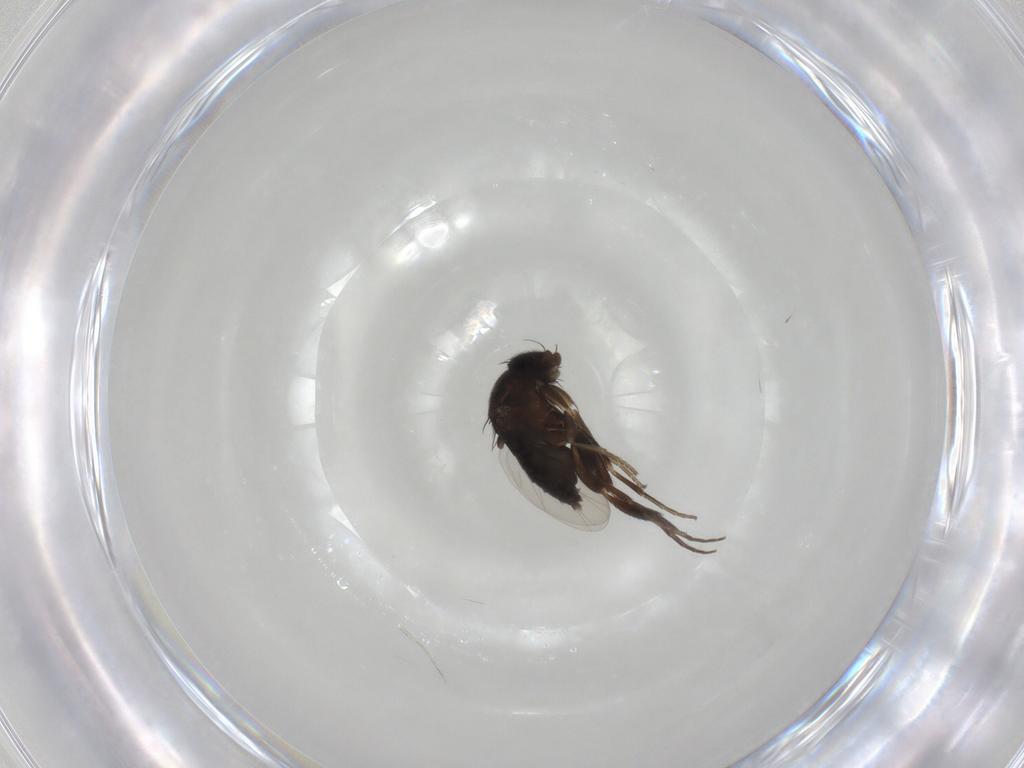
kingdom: Animalia
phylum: Arthropoda
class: Insecta
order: Diptera
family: Phoridae
